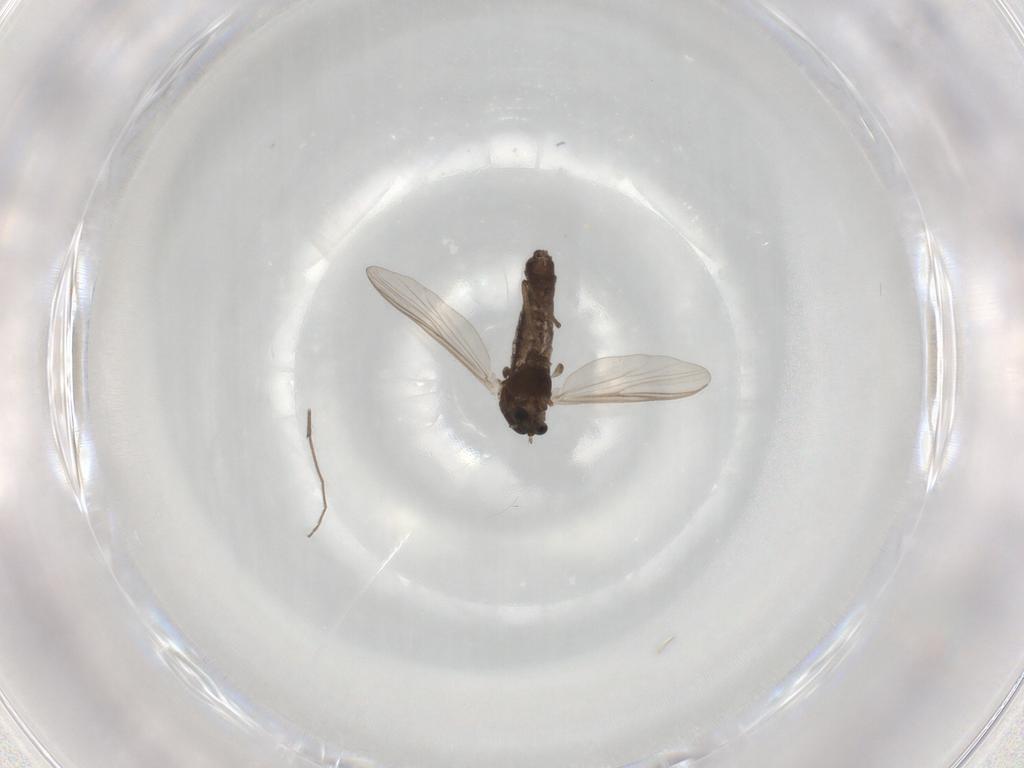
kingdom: Animalia
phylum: Arthropoda
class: Insecta
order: Diptera
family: Chironomidae
